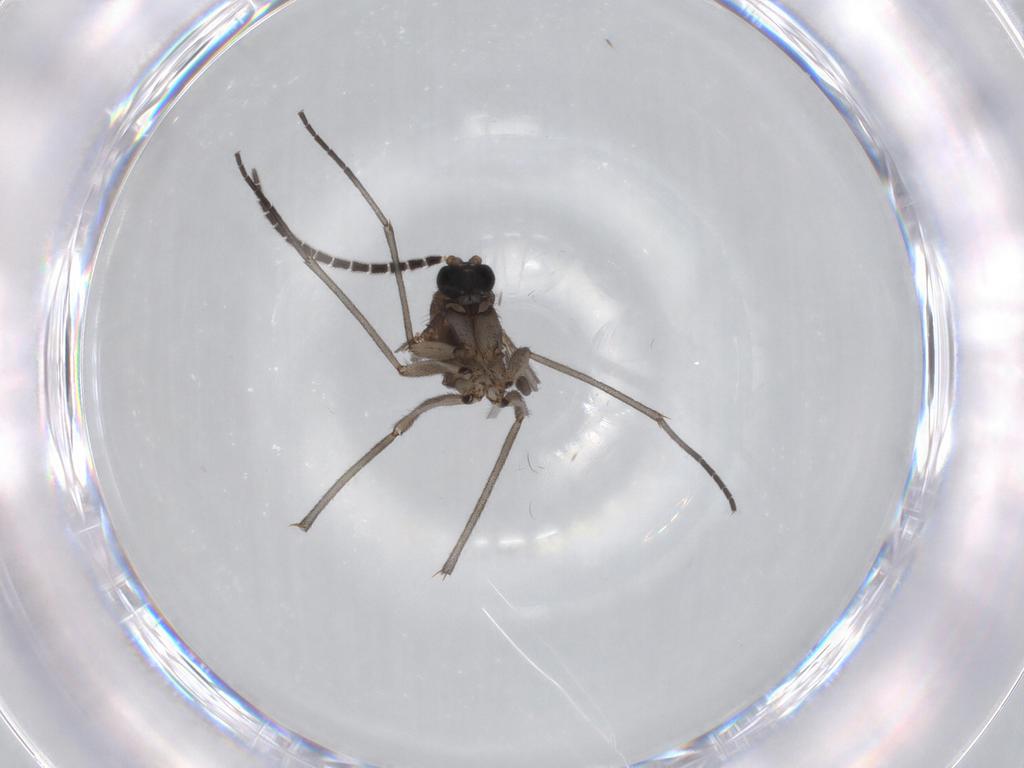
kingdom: Animalia
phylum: Arthropoda
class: Insecta
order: Diptera
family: Sciaridae
